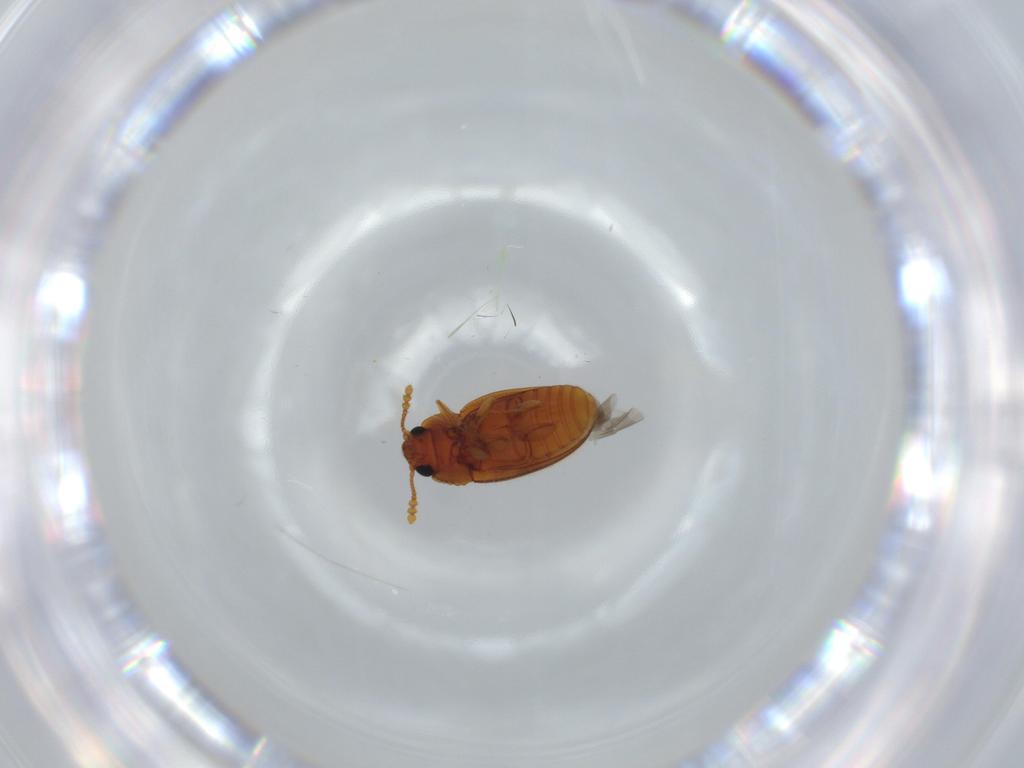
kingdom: Animalia
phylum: Arthropoda
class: Insecta
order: Coleoptera
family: Erotylidae
